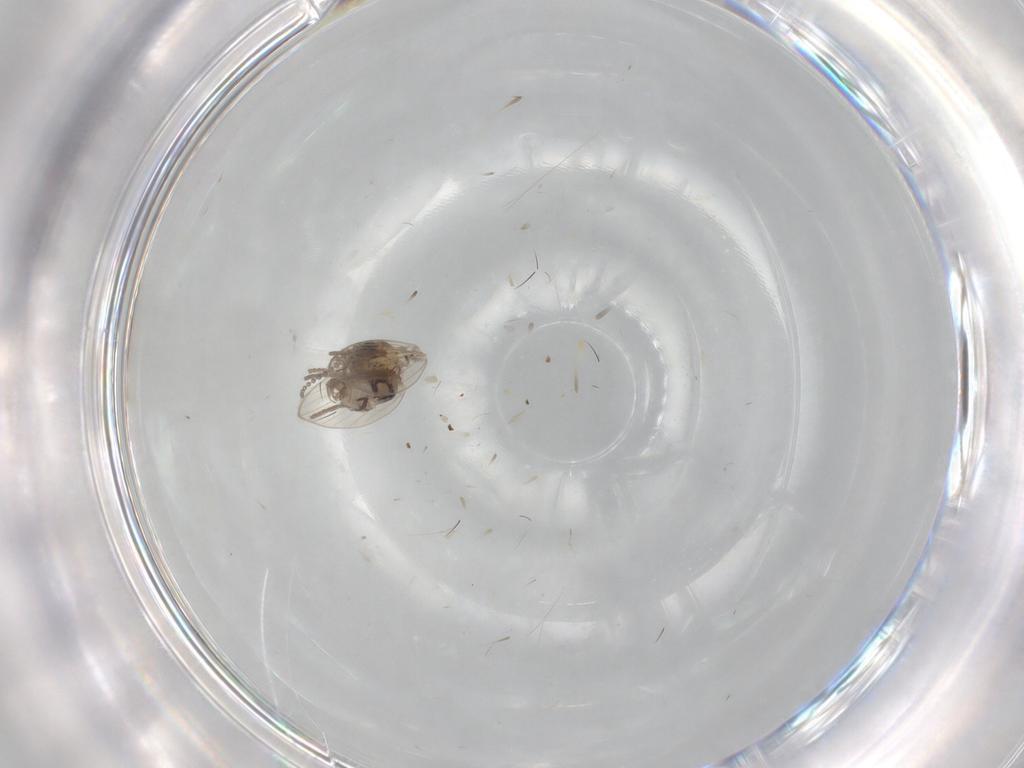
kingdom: Animalia
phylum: Arthropoda
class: Insecta
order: Diptera
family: Psychodidae
